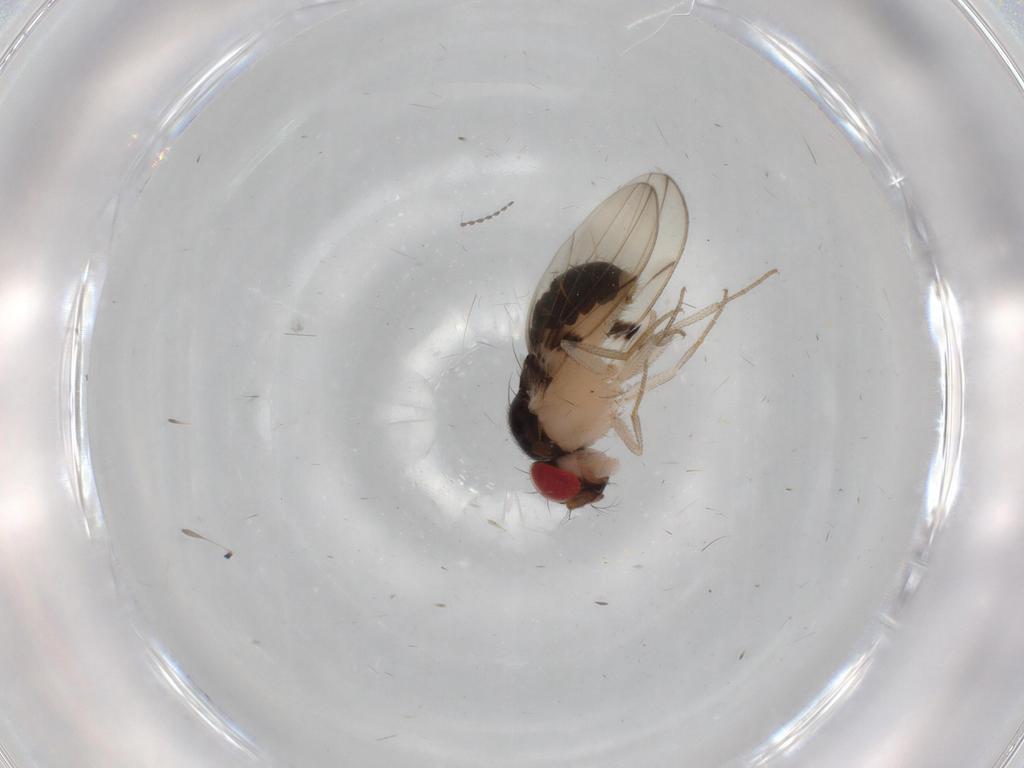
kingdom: Animalia
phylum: Arthropoda
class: Insecta
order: Diptera
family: Drosophilidae
